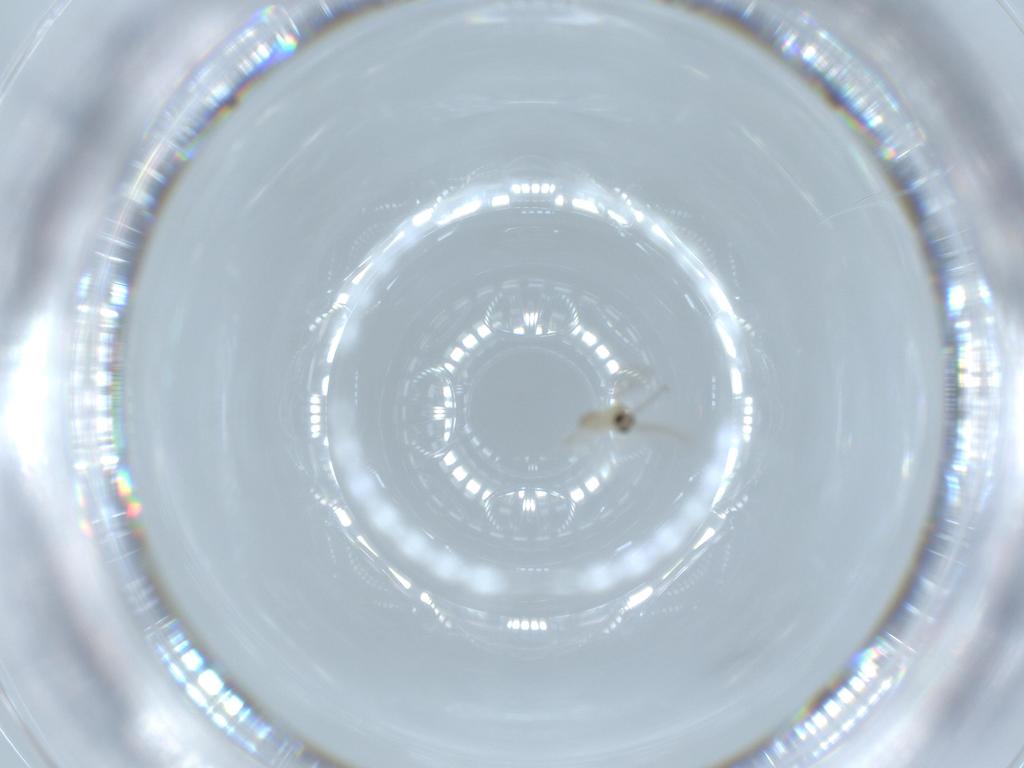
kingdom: Animalia
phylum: Arthropoda
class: Insecta
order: Diptera
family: Cecidomyiidae
